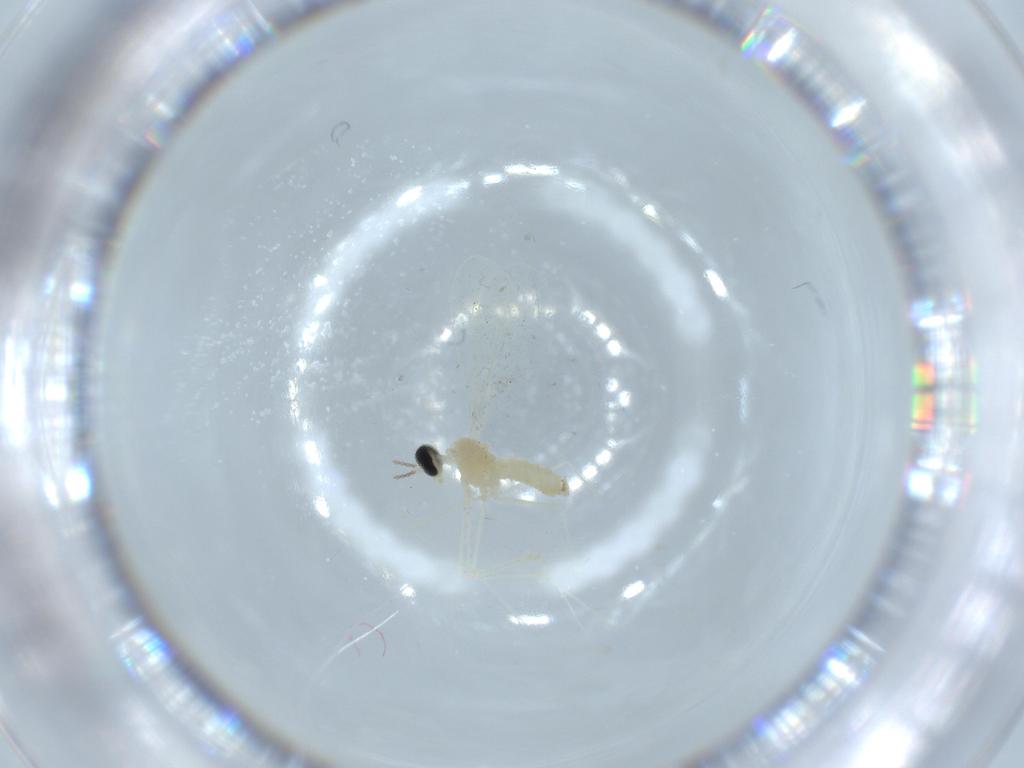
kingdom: Animalia
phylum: Arthropoda
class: Insecta
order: Diptera
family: Cecidomyiidae
